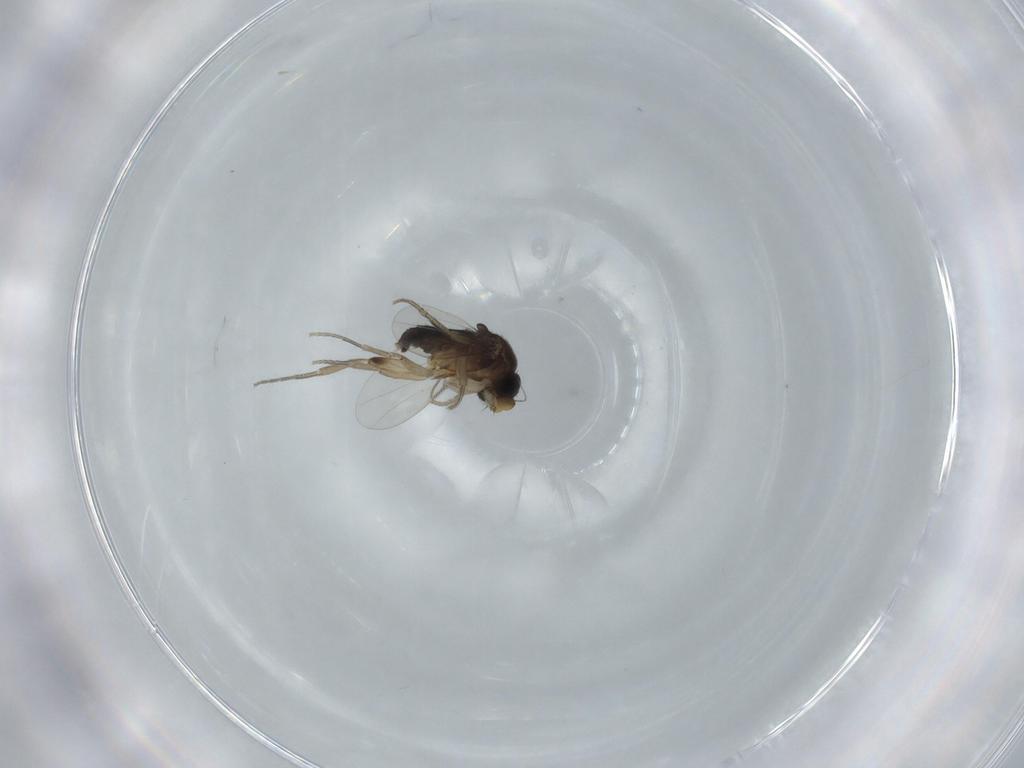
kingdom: Animalia
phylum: Arthropoda
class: Insecta
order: Diptera
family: Phoridae
